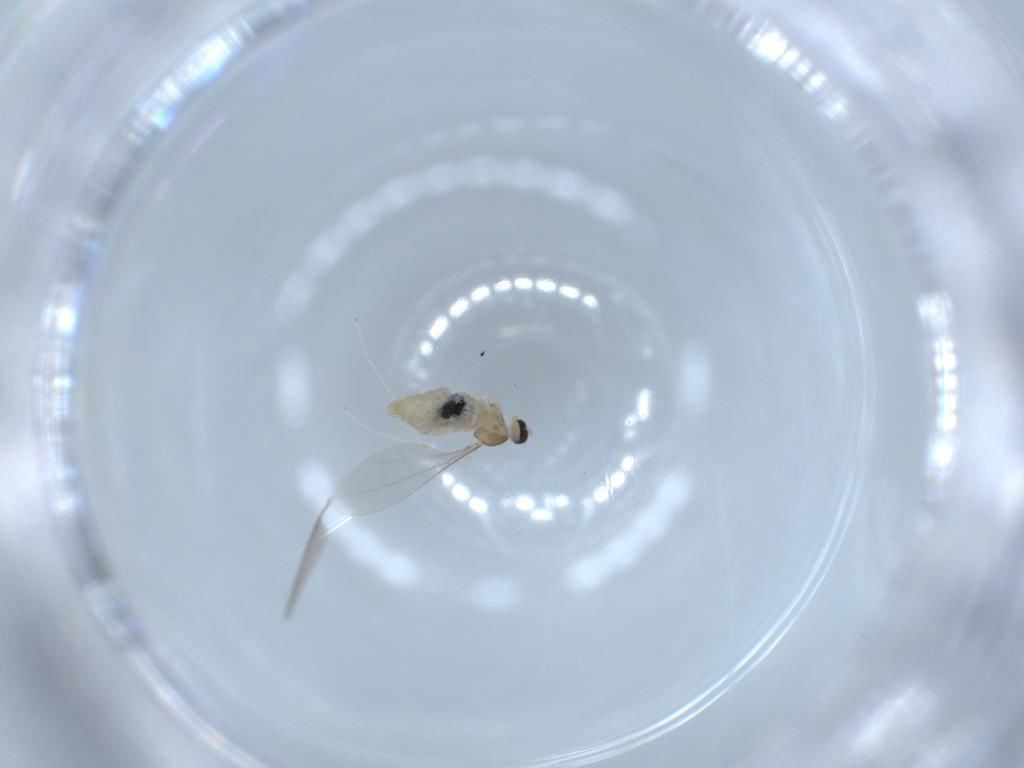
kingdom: Animalia
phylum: Arthropoda
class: Insecta
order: Diptera
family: Cecidomyiidae
